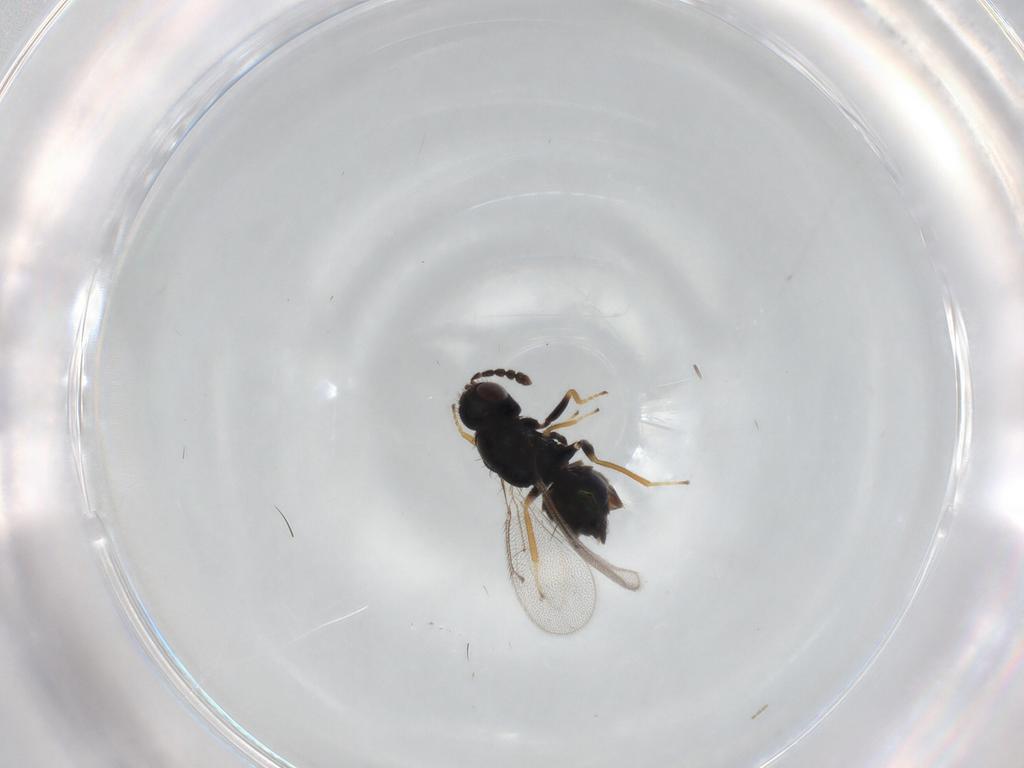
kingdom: Animalia
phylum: Arthropoda
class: Insecta
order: Hymenoptera
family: Eulophidae
